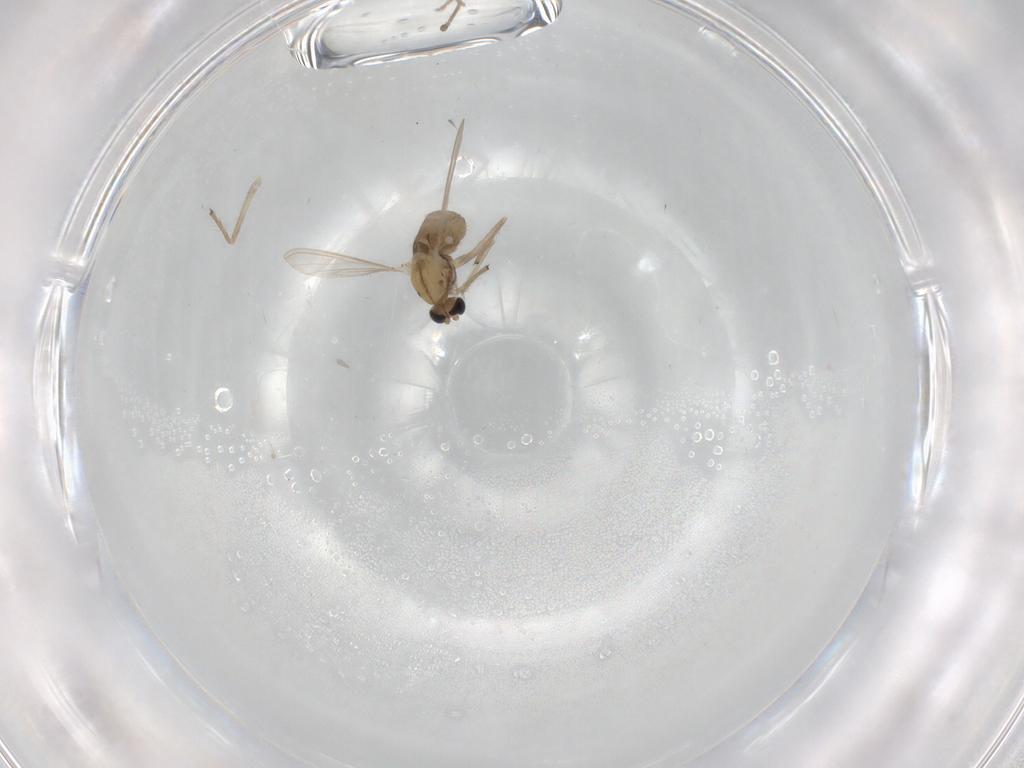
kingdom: Animalia
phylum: Arthropoda
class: Insecta
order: Diptera
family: Chironomidae
